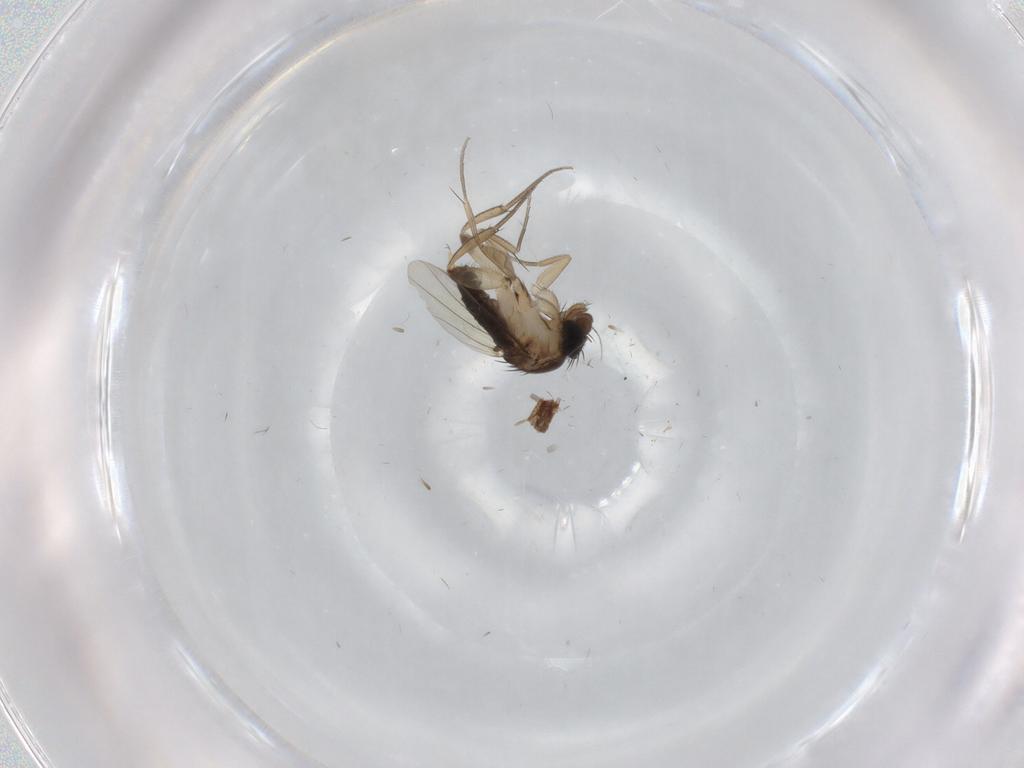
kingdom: Animalia
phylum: Arthropoda
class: Insecta
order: Diptera
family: Phoridae
